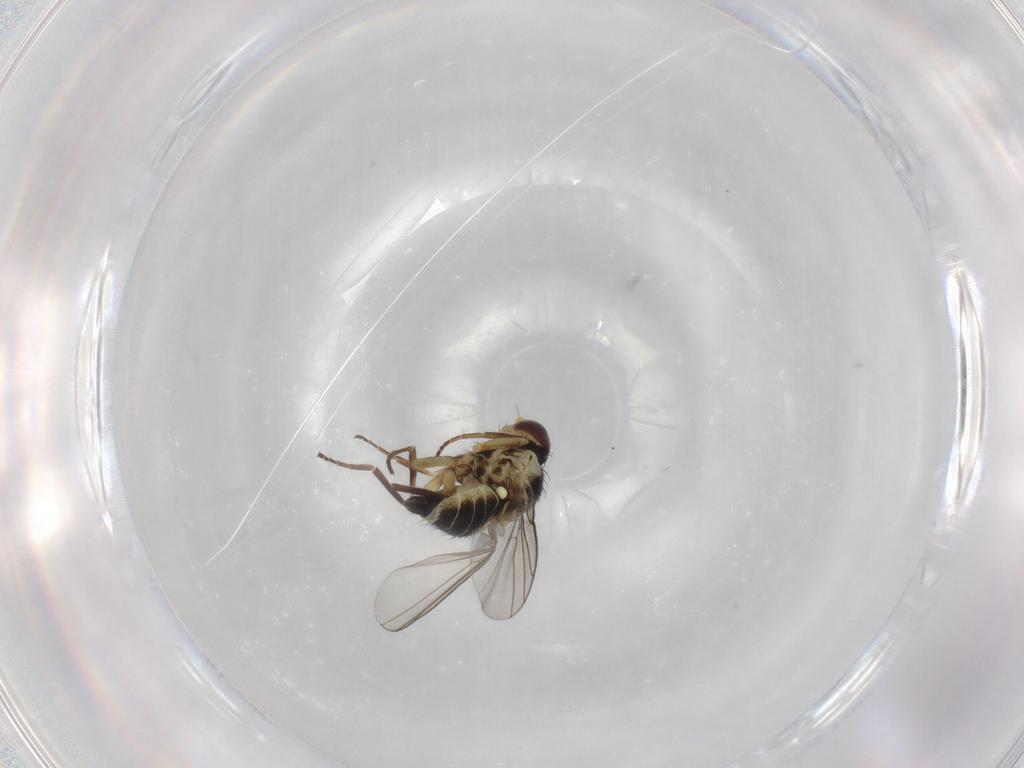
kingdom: Animalia
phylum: Arthropoda
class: Insecta
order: Diptera
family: Agromyzidae
